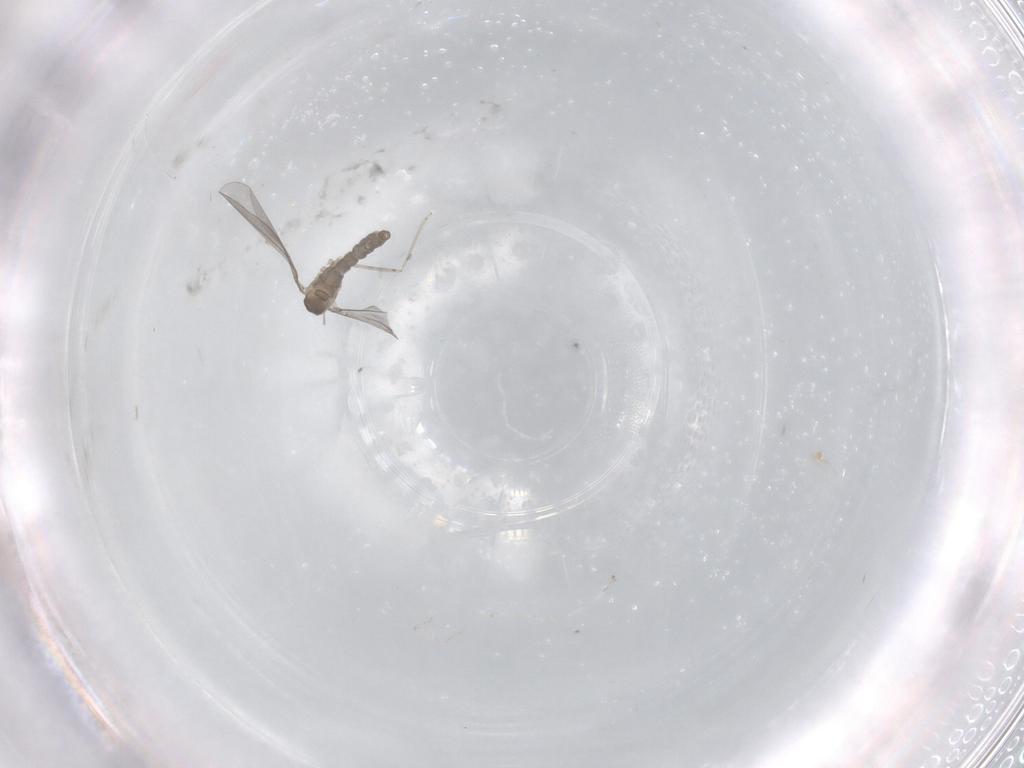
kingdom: Animalia
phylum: Arthropoda
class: Insecta
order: Diptera
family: Cecidomyiidae
